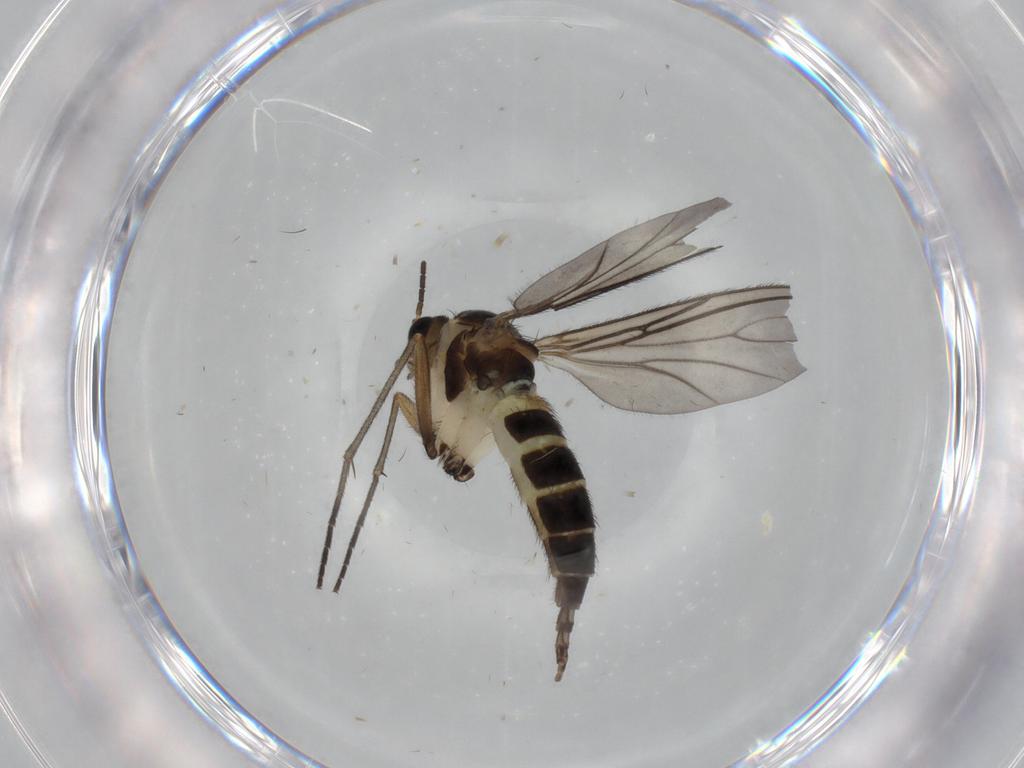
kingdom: Animalia
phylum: Arthropoda
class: Insecta
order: Diptera
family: Sciaridae
